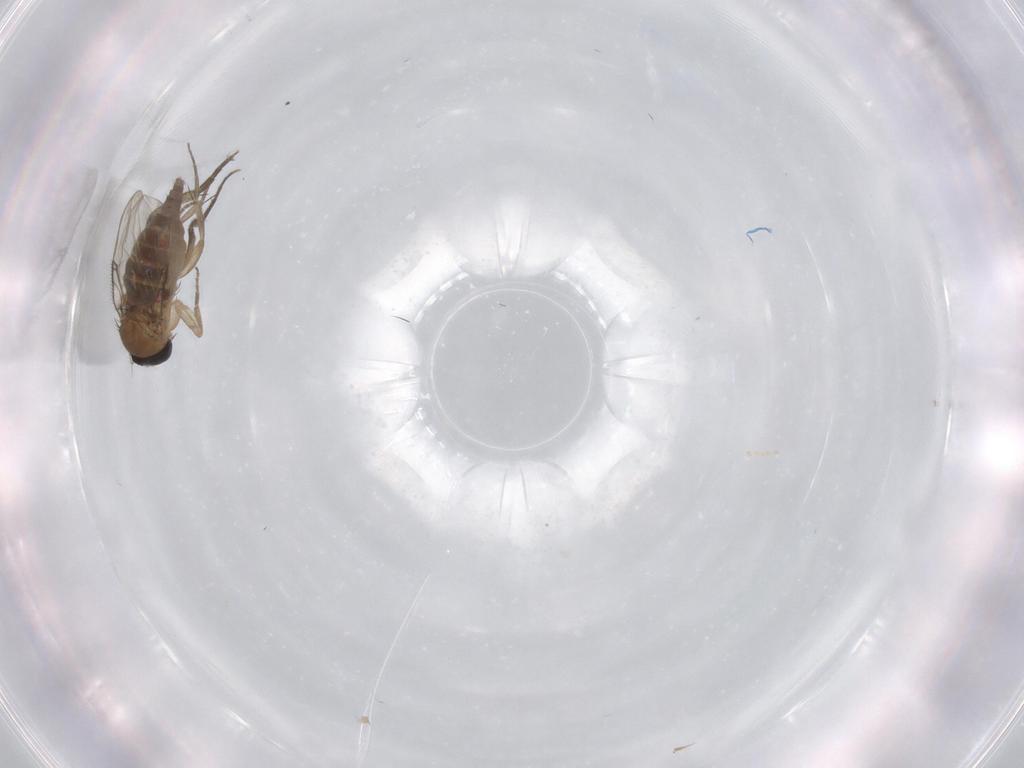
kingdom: Animalia
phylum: Arthropoda
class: Insecta
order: Diptera
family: Phoridae
